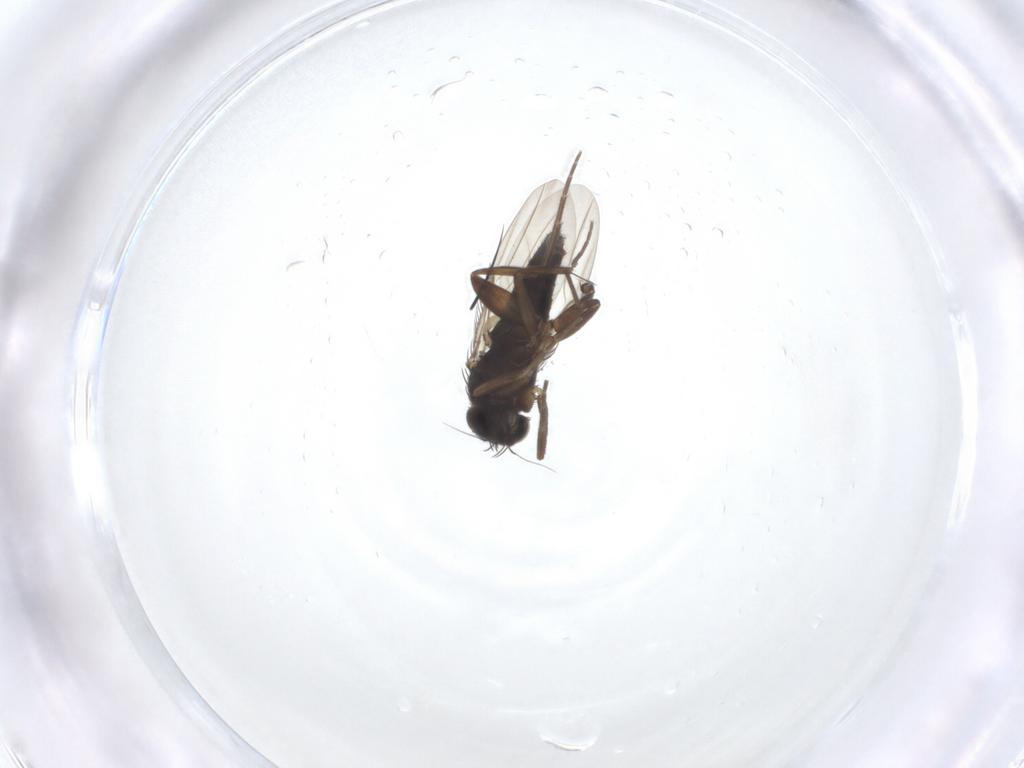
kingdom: Animalia
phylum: Arthropoda
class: Insecta
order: Diptera
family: Phoridae
